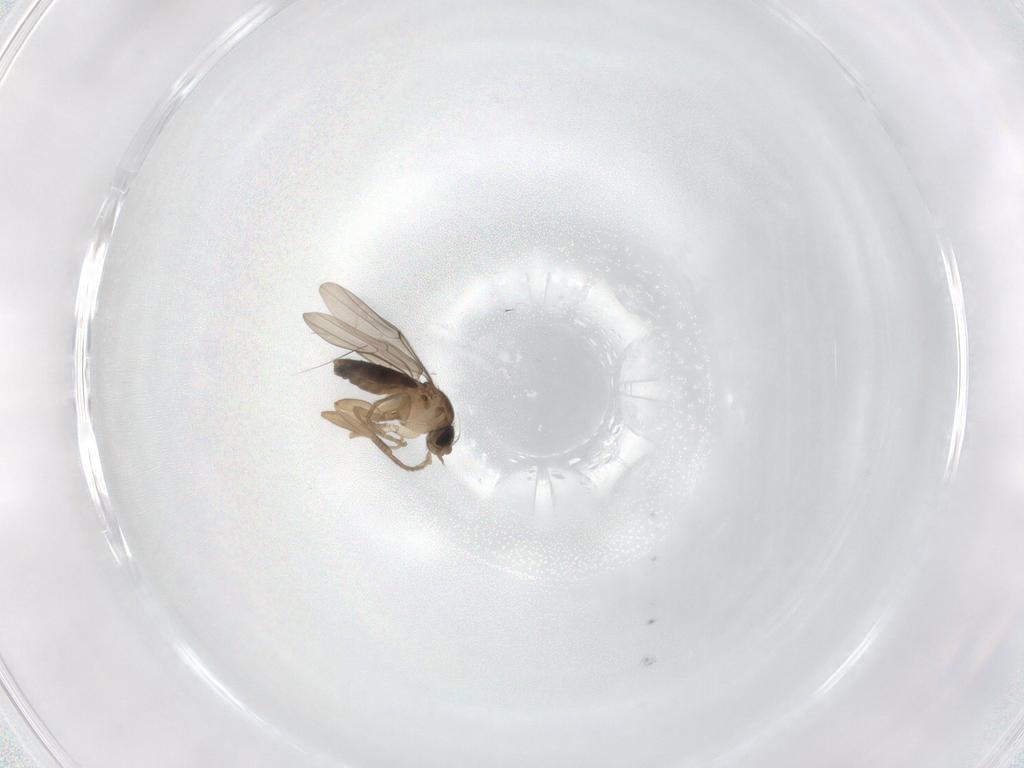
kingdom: Animalia
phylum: Arthropoda
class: Insecta
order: Diptera
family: Phoridae
